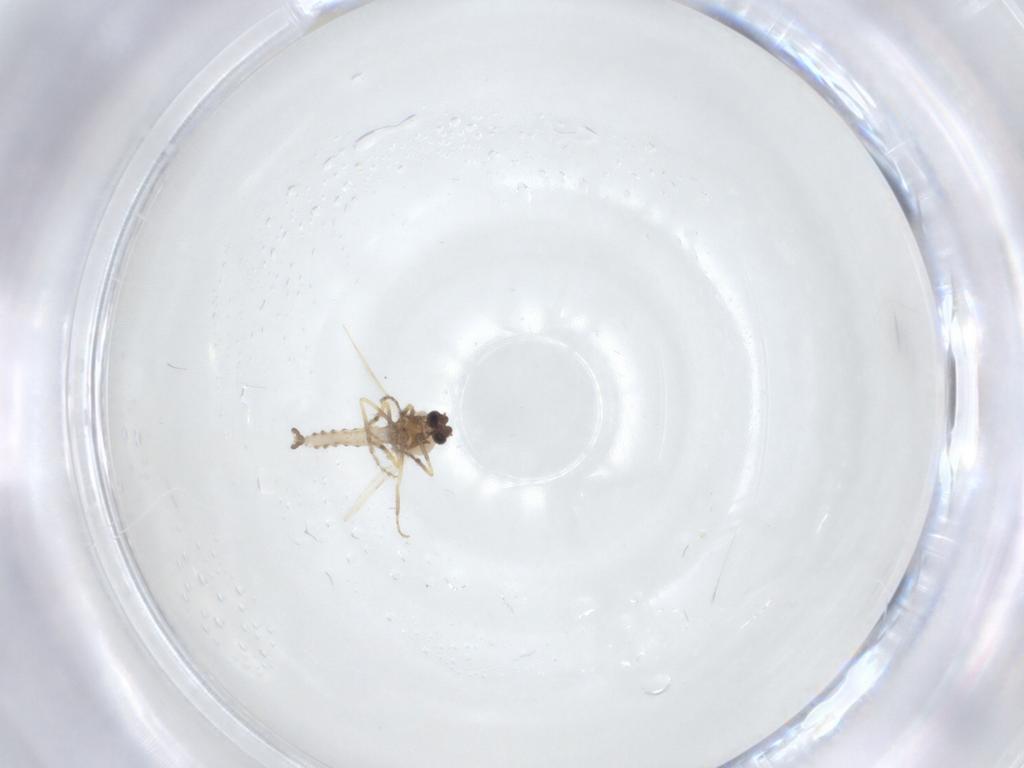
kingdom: Animalia
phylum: Arthropoda
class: Insecta
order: Diptera
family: Ceratopogonidae
